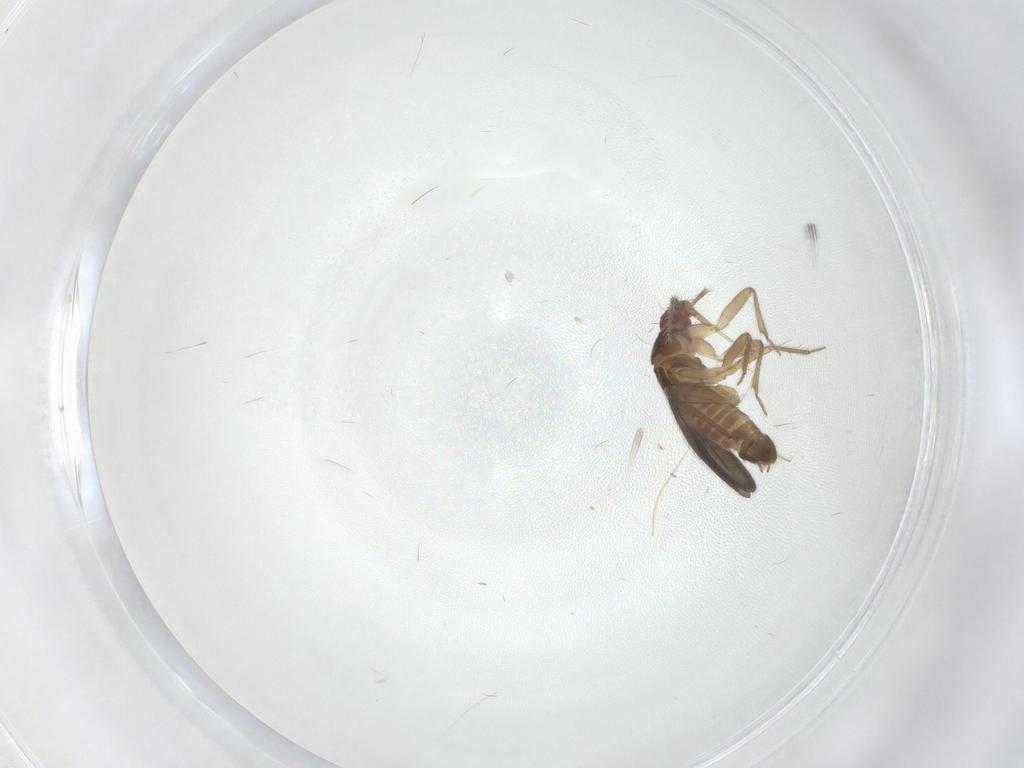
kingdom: Animalia
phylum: Arthropoda
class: Insecta
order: Hemiptera
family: Ceratocombidae
